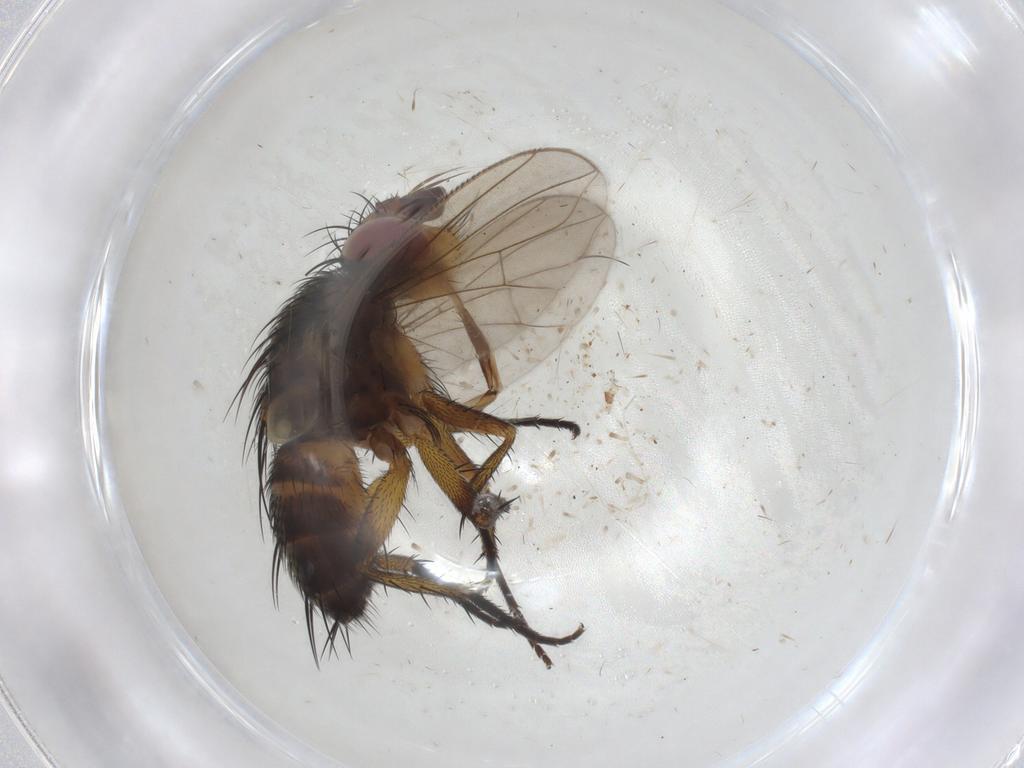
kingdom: Animalia
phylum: Arthropoda
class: Insecta
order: Diptera
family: Tachinidae
